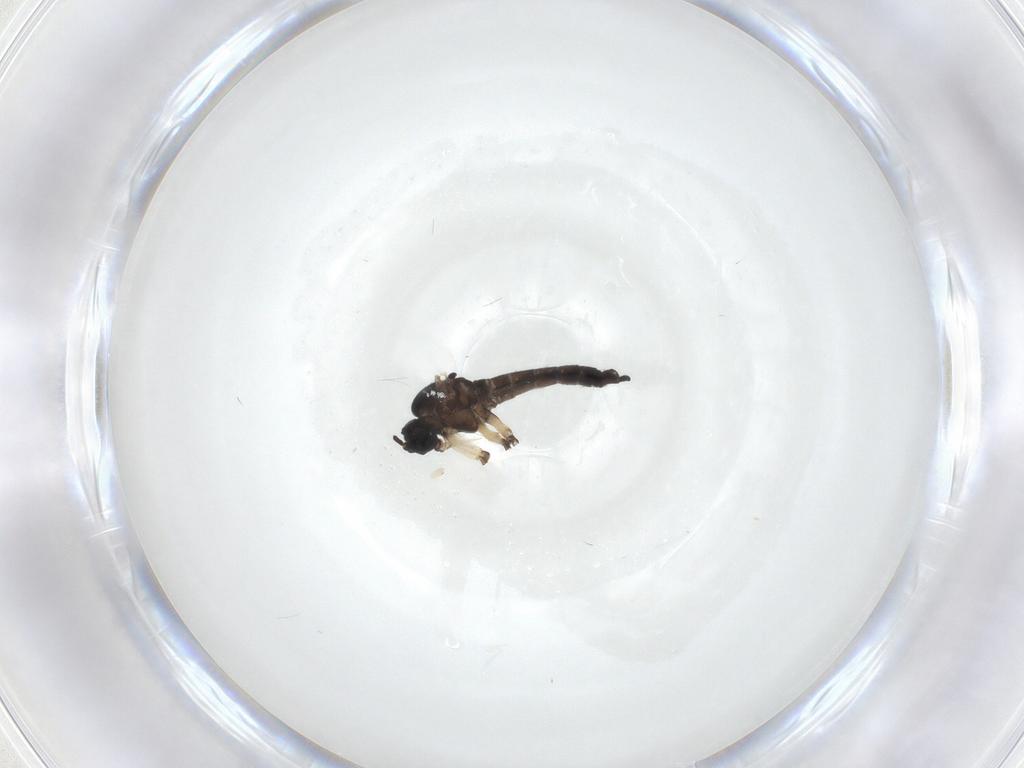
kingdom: Animalia
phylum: Arthropoda
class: Insecta
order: Diptera
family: Sciaridae
